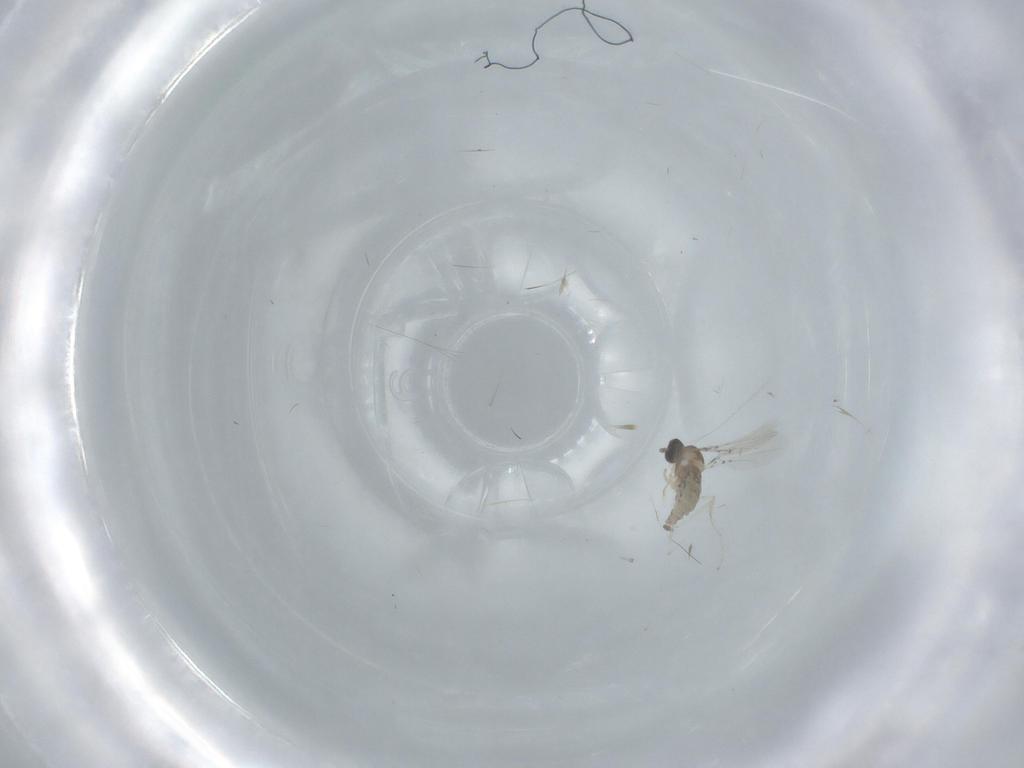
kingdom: Animalia
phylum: Arthropoda
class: Insecta
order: Diptera
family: Cecidomyiidae
